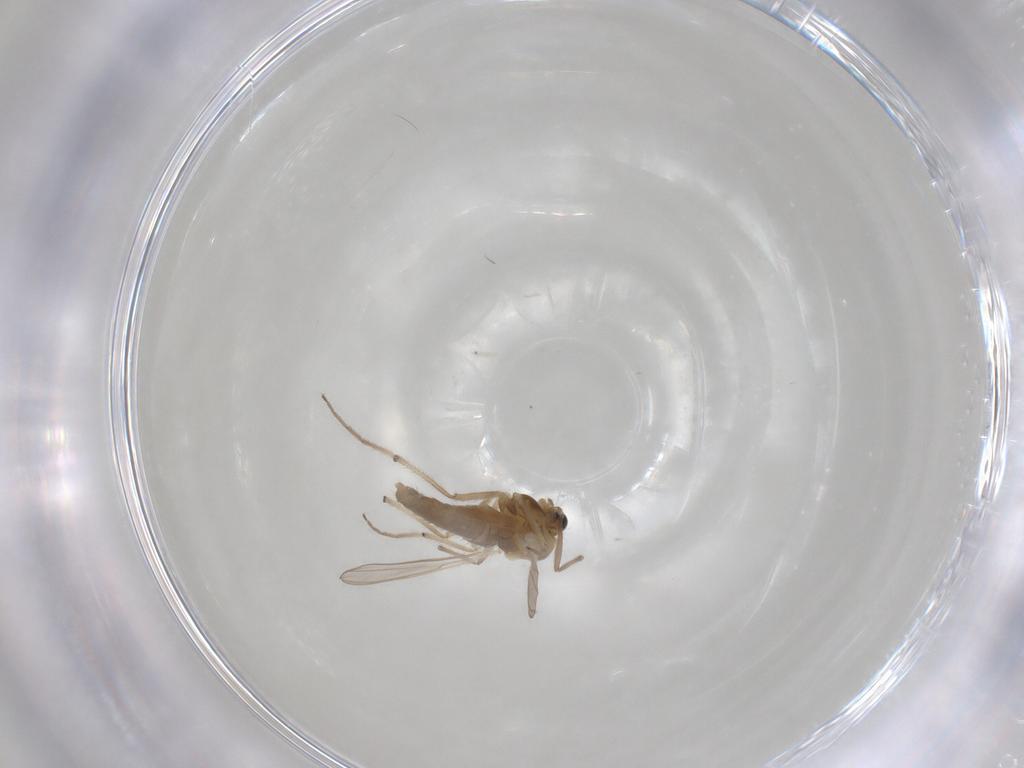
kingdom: Animalia
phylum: Arthropoda
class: Insecta
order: Diptera
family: Chironomidae
